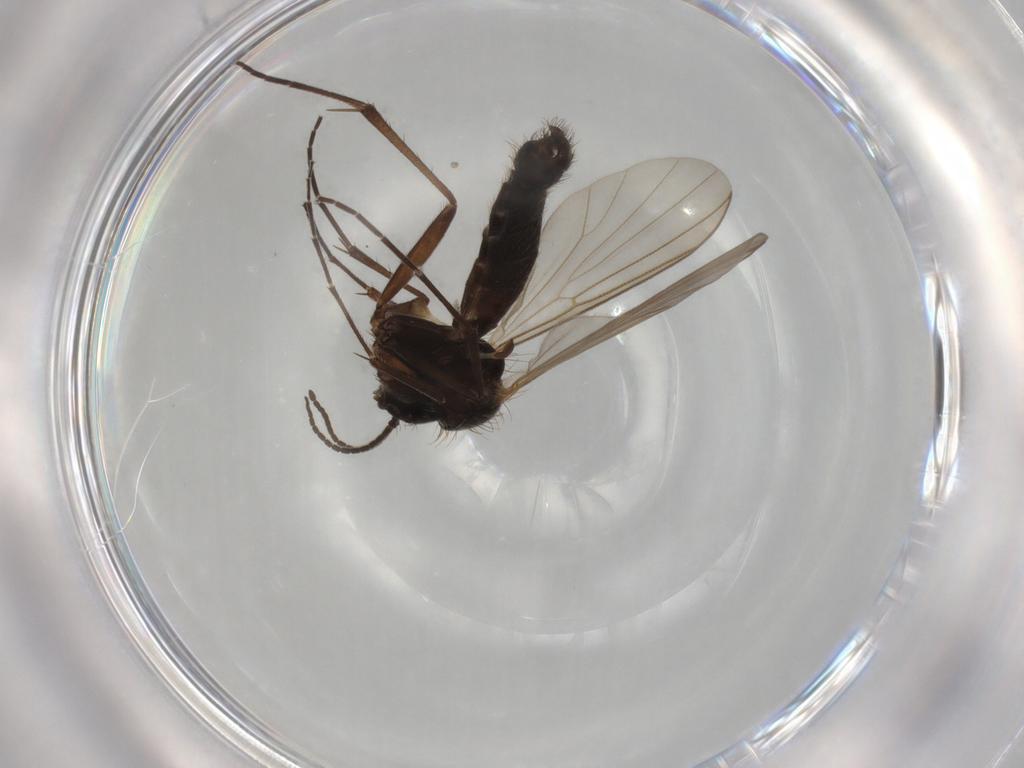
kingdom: Animalia
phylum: Arthropoda
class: Insecta
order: Diptera
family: Mycetophilidae
